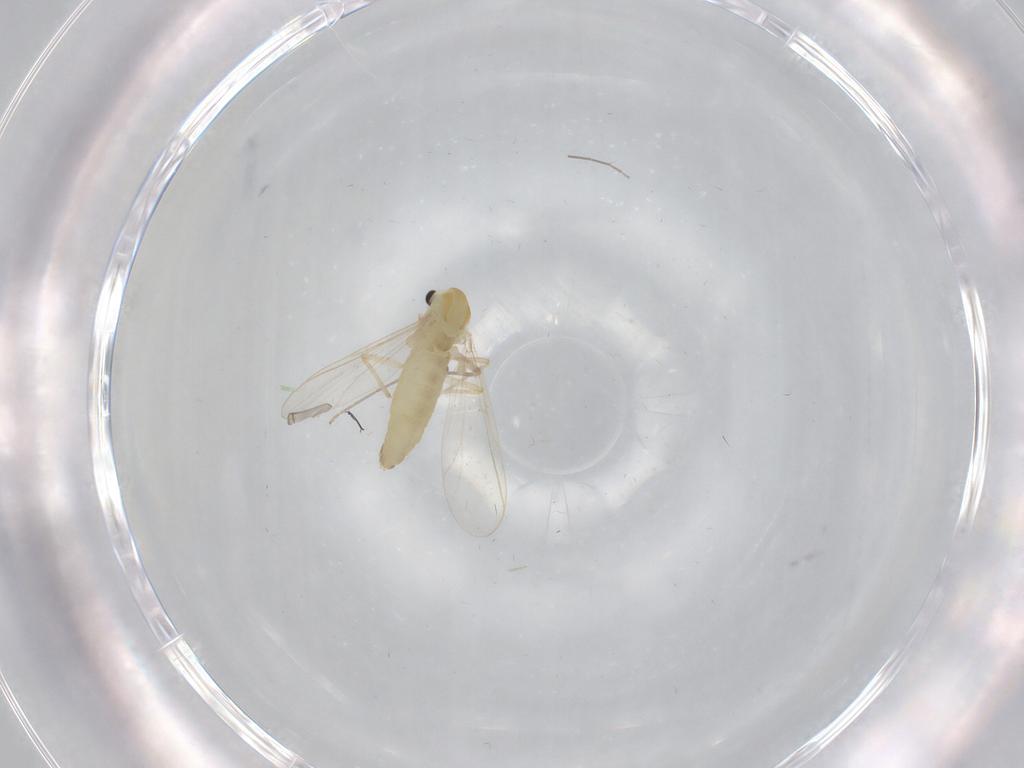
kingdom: Animalia
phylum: Arthropoda
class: Insecta
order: Diptera
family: Chironomidae
